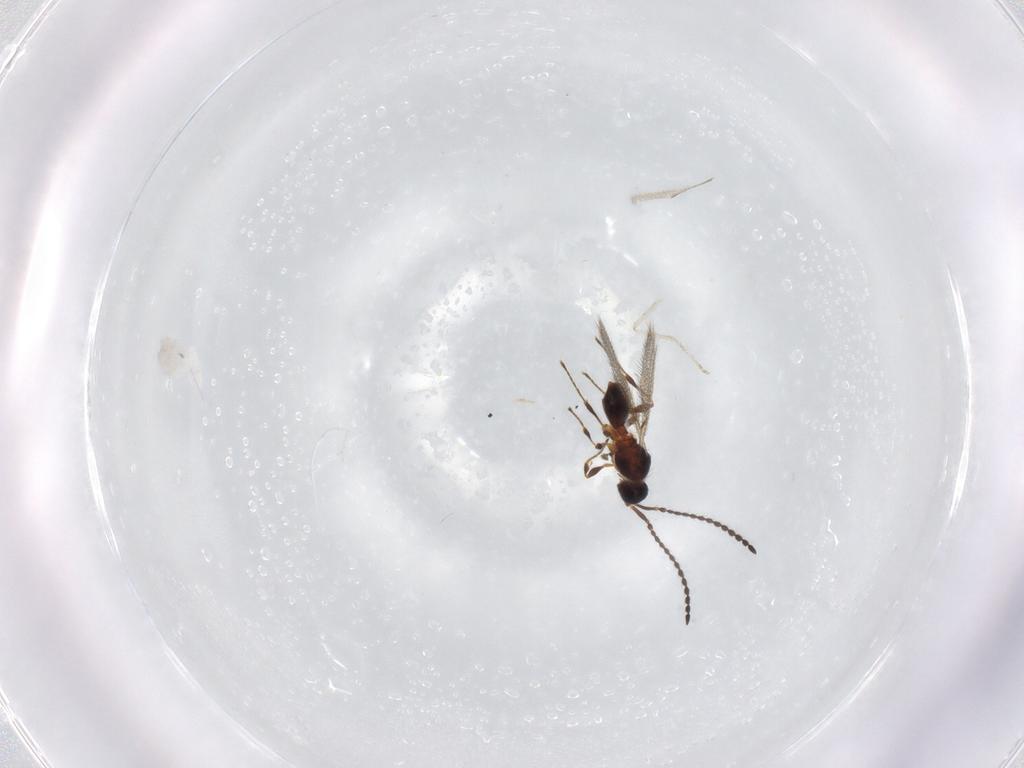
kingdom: Animalia
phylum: Arthropoda
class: Insecta
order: Hymenoptera
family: Diapriidae
